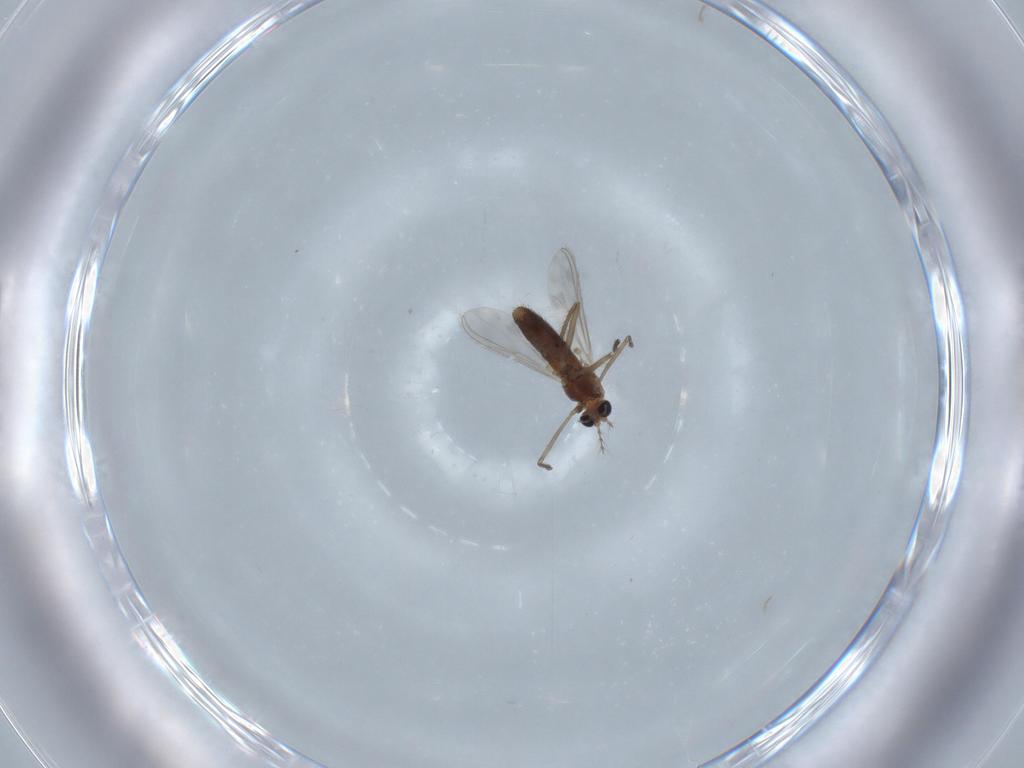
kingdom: Animalia
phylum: Arthropoda
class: Insecta
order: Diptera
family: Chironomidae
